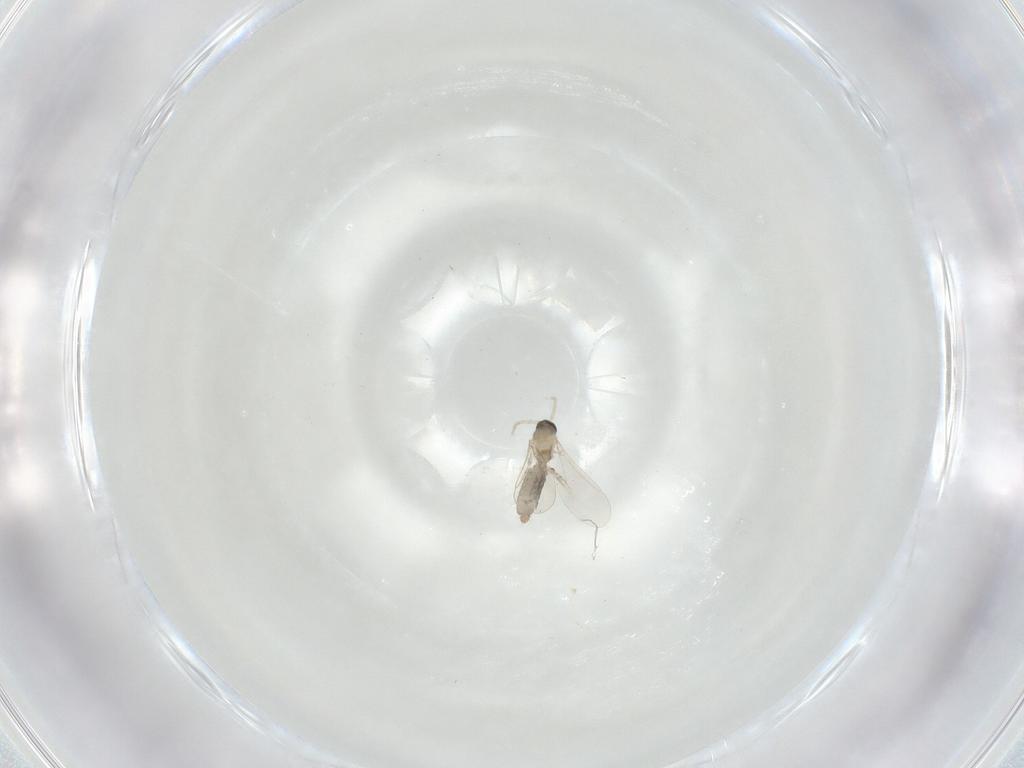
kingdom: Animalia
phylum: Arthropoda
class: Insecta
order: Diptera
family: Cecidomyiidae
